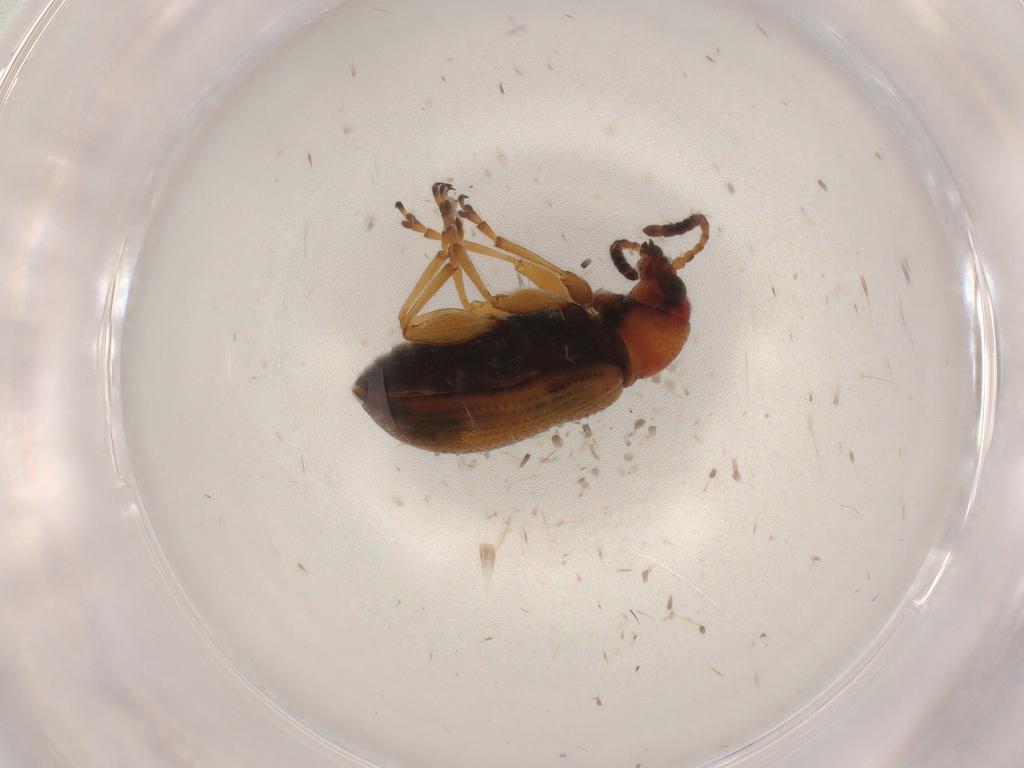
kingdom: Animalia
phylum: Arthropoda
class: Insecta
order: Coleoptera
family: Chrysomelidae
